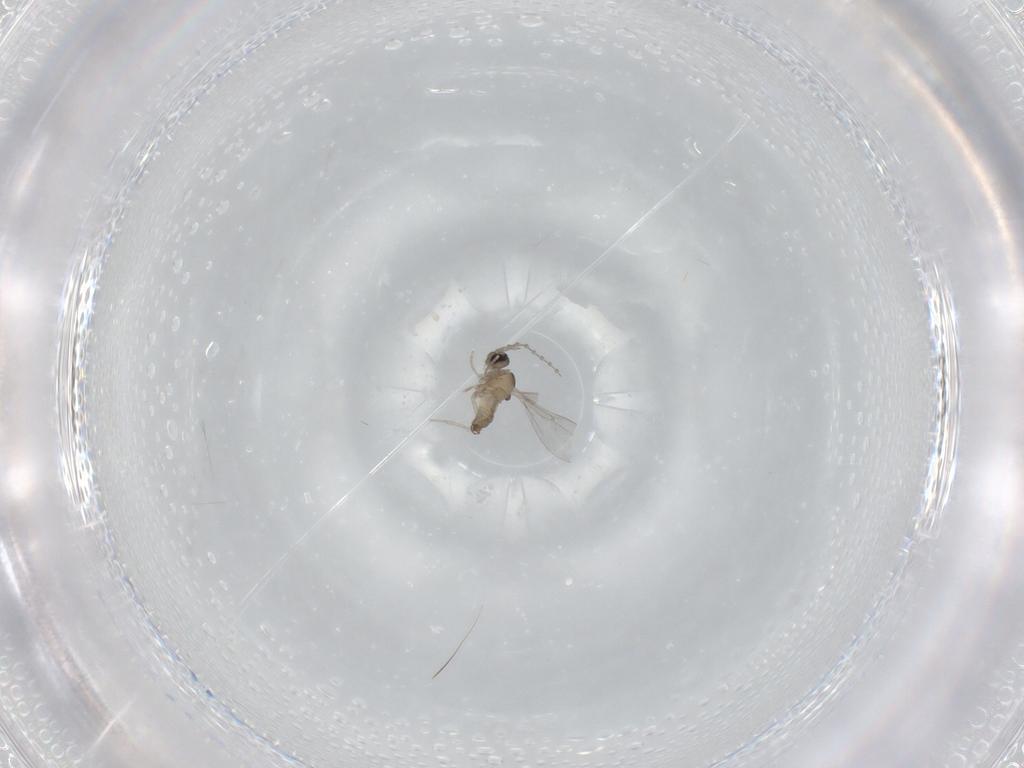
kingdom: Animalia
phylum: Arthropoda
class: Insecta
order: Diptera
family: Cecidomyiidae
